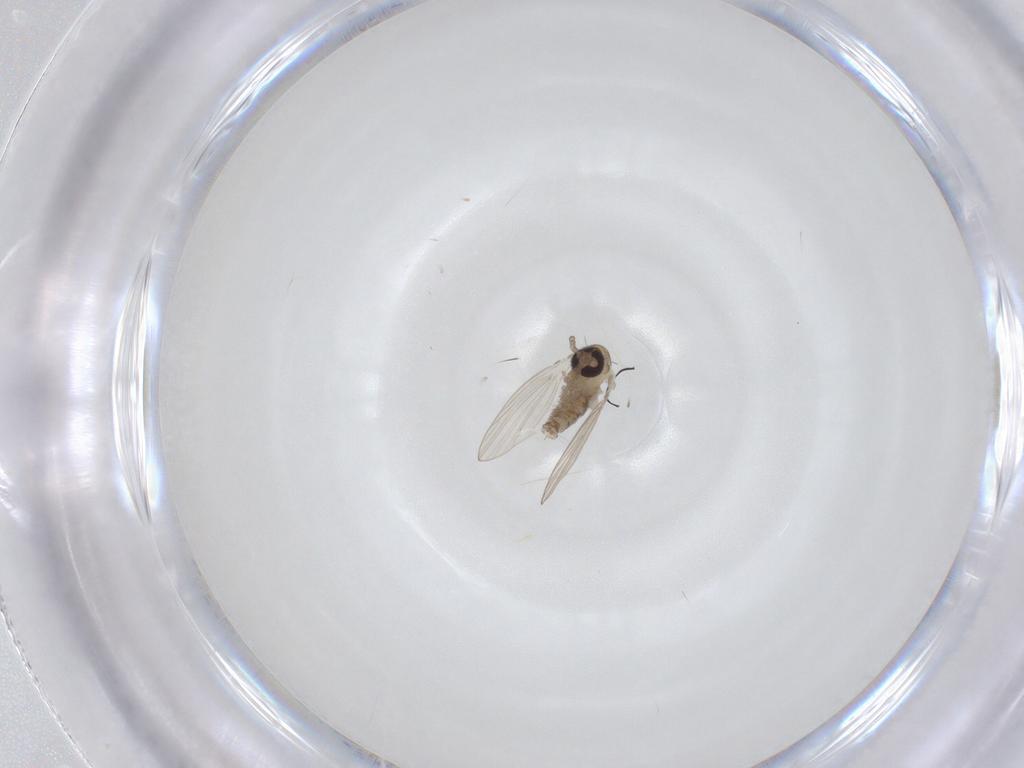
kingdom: Animalia
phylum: Arthropoda
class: Insecta
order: Diptera
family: Psychodidae
